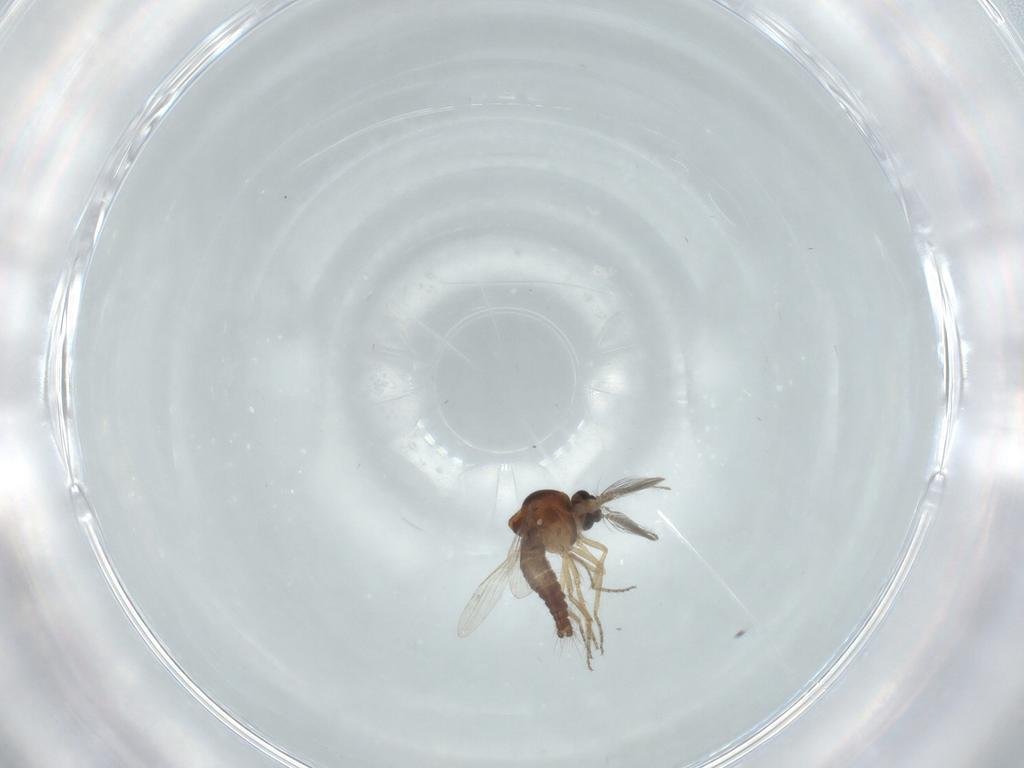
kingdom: Animalia
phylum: Arthropoda
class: Insecta
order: Diptera
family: Ceratopogonidae
